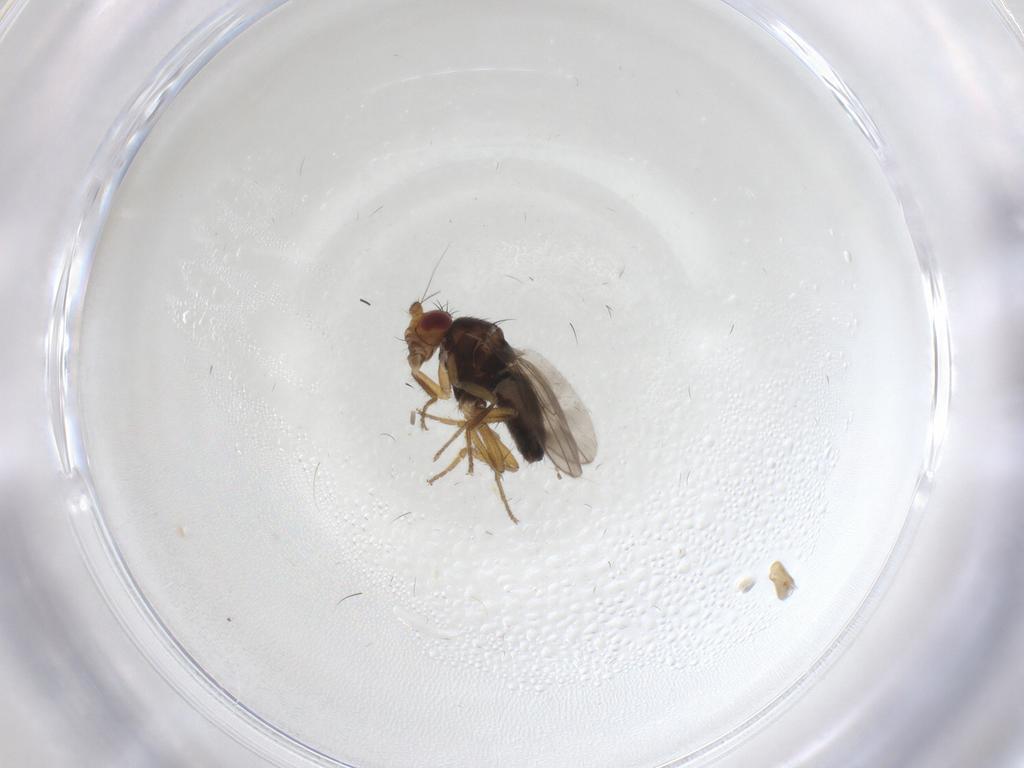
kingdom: Animalia
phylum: Arthropoda
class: Insecta
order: Diptera
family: Sphaeroceridae
